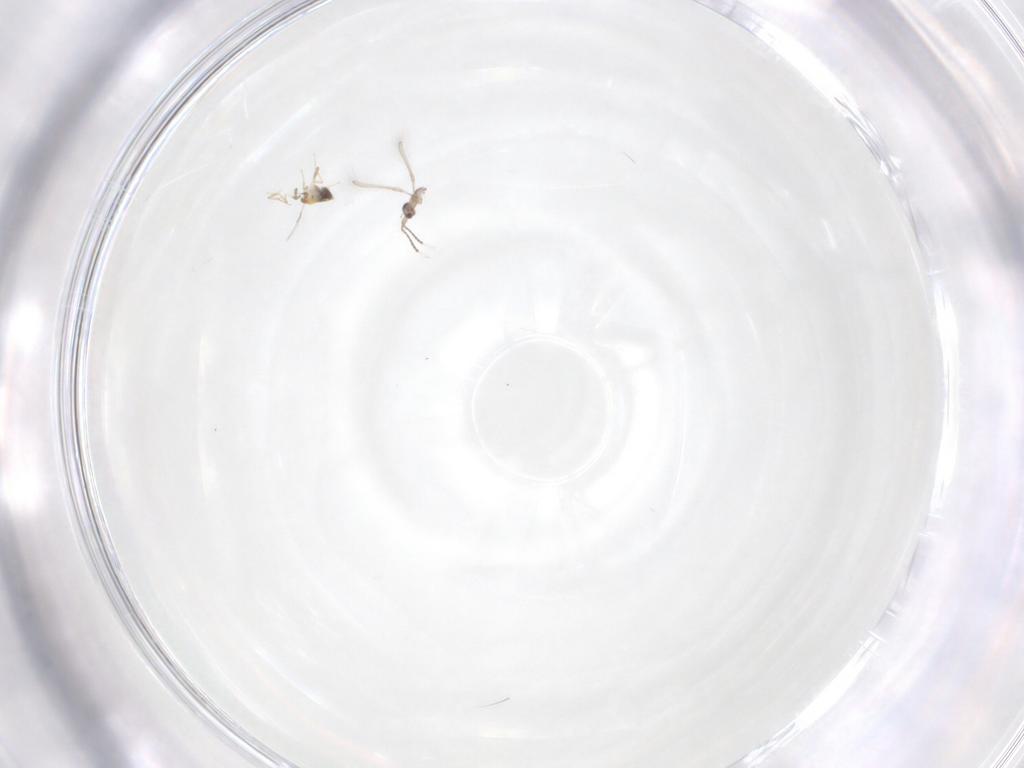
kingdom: Animalia
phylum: Arthropoda
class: Insecta
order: Hymenoptera
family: Trichogrammatidae
